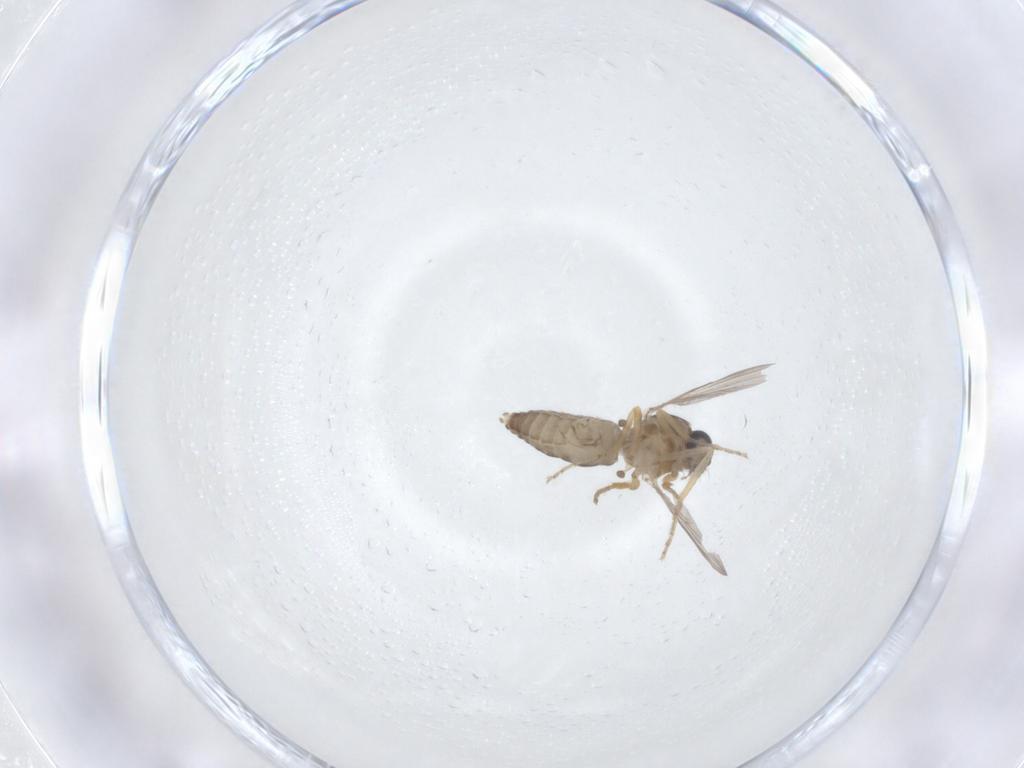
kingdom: Animalia
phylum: Arthropoda
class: Insecta
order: Diptera
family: Ceratopogonidae
